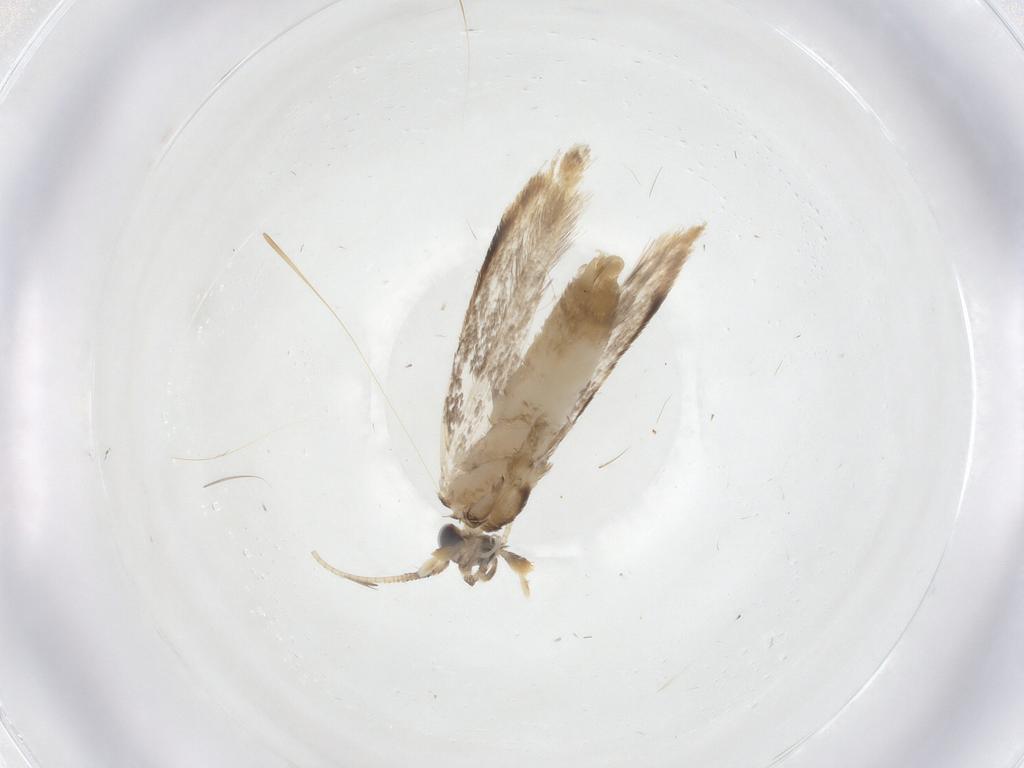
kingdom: Animalia
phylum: Arthropoda
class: Insecta
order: Lepidoptera
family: Dryadaulidae
